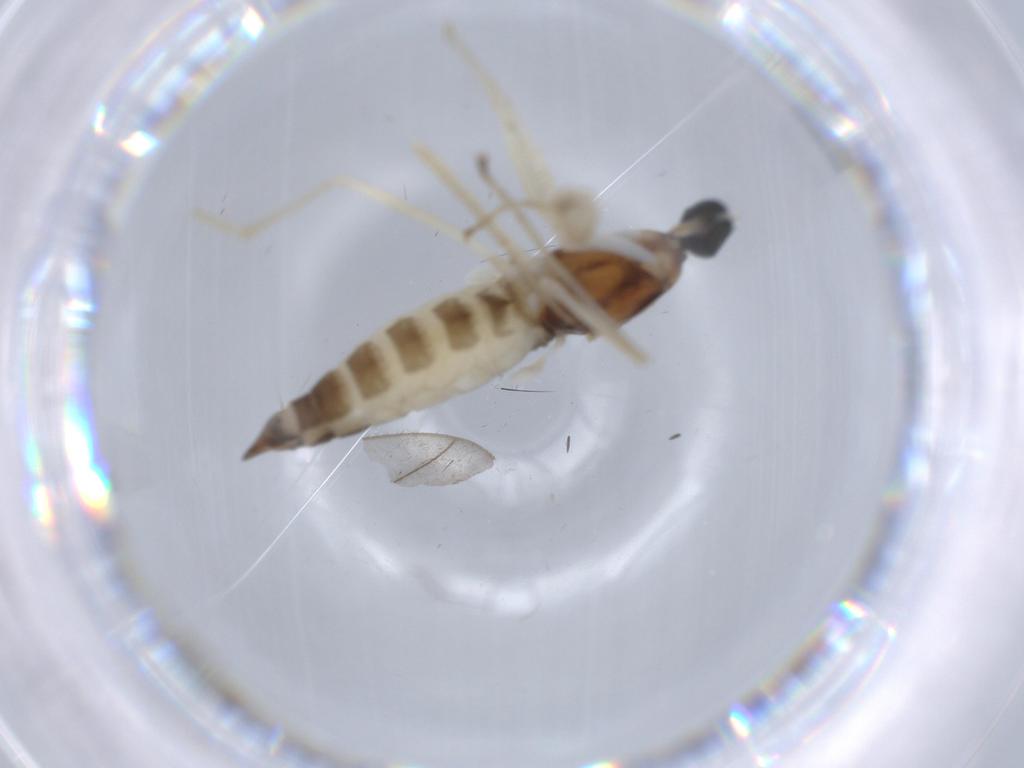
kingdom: Animalia
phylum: Arthropoda
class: Insecta
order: Diptera
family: Empididae
